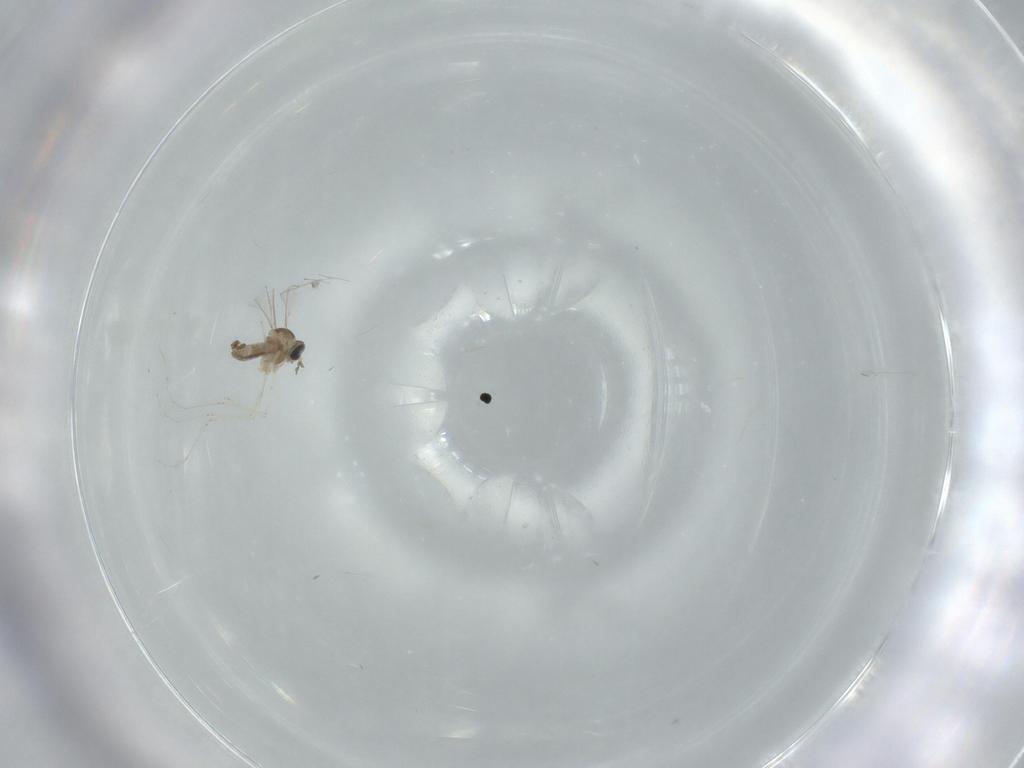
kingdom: Animalia
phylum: Arthropoda
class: Insecta
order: Diptera
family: Cecidomyiidae
